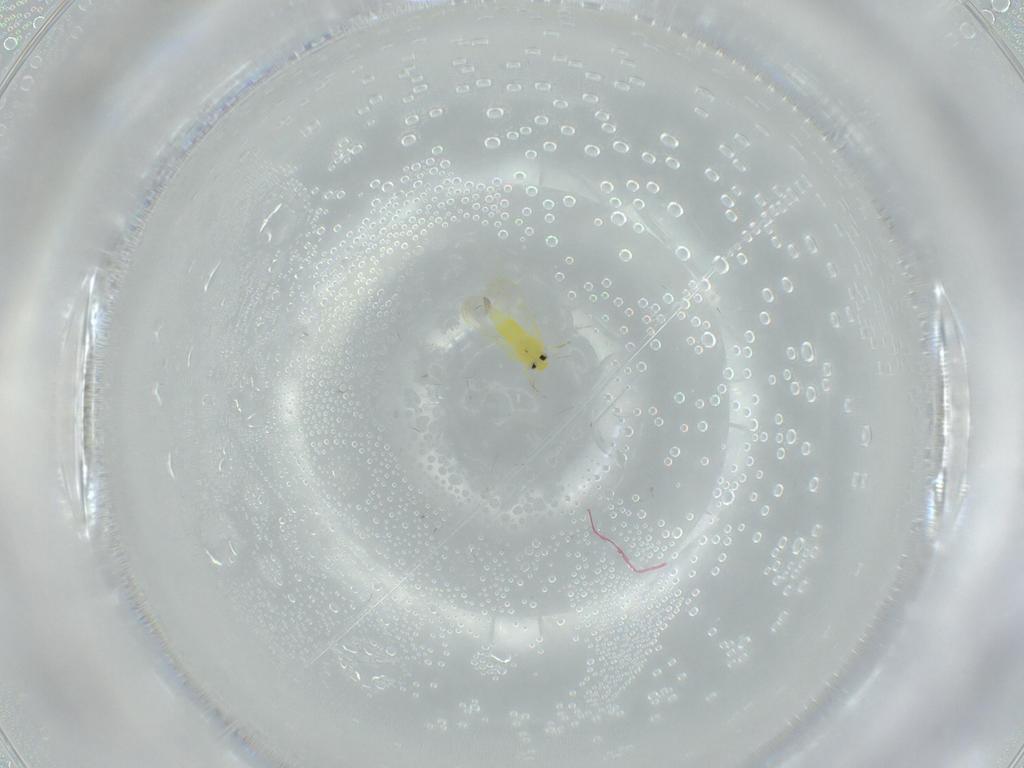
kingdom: Animalia
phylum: Arthropoda
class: Insecta
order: Hemiptera
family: Aleyrodidae
